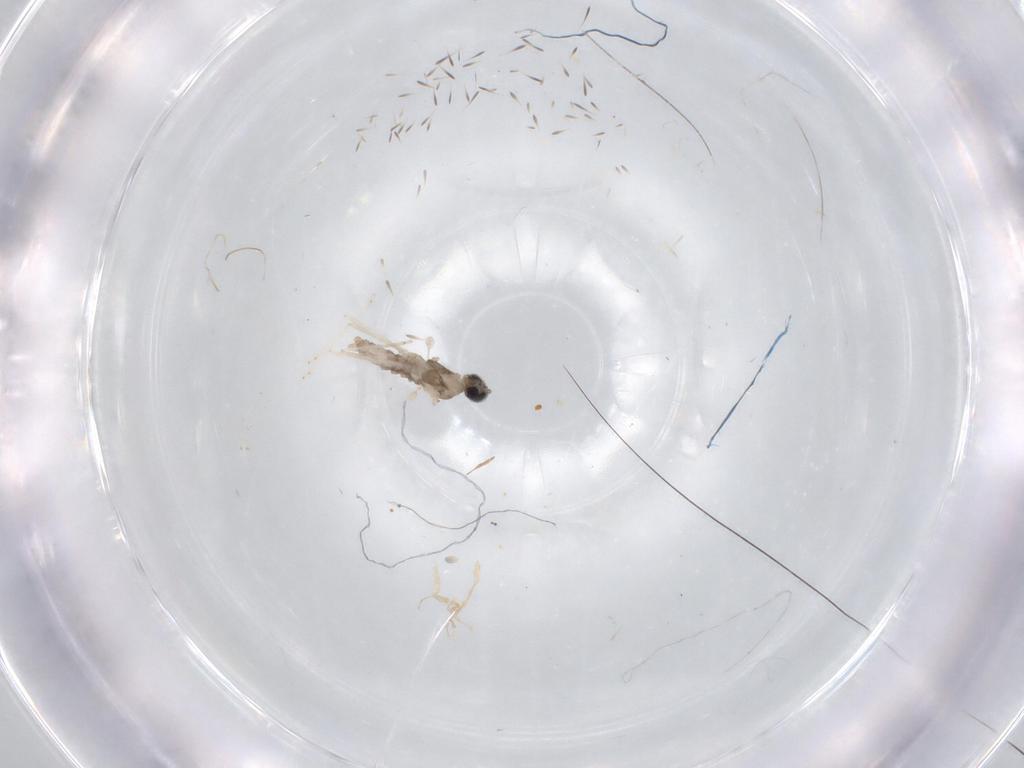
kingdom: Animalia
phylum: Arthropoda
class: Insecta
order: Diptera
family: Cecidomyiidae
